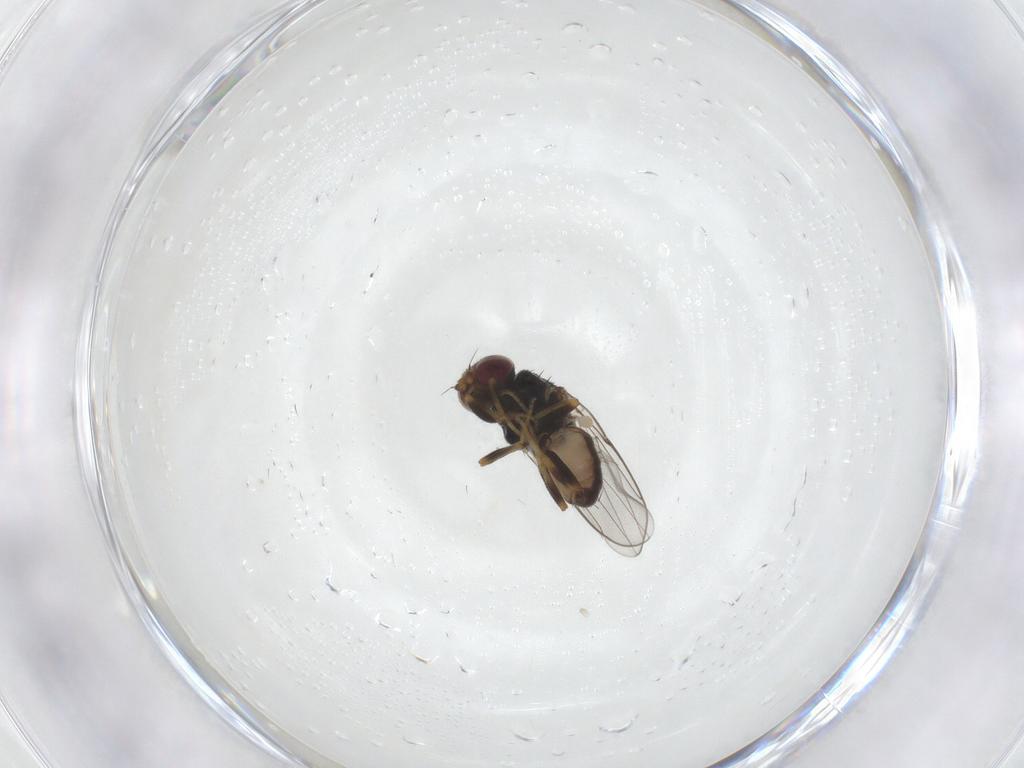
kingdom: Animalia
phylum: Arthropoda
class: Insecta
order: Diptera
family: Chloropidae
